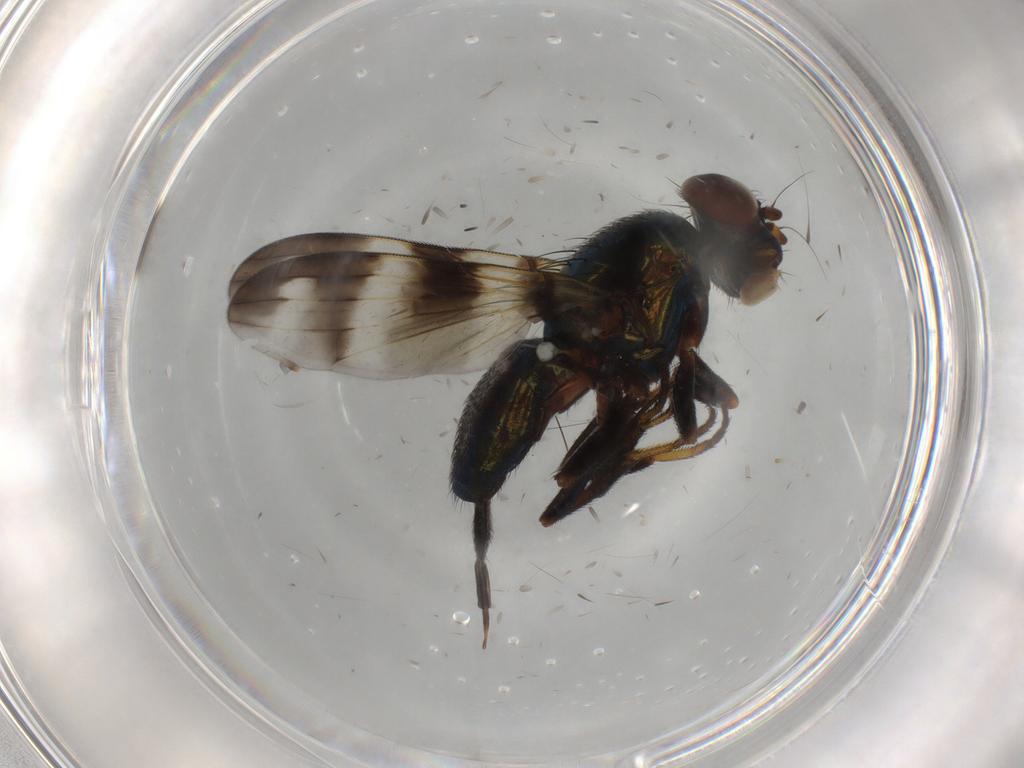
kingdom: Animalia
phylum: Arthropoda
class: Insecta
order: Diptera
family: Ulidiidae
